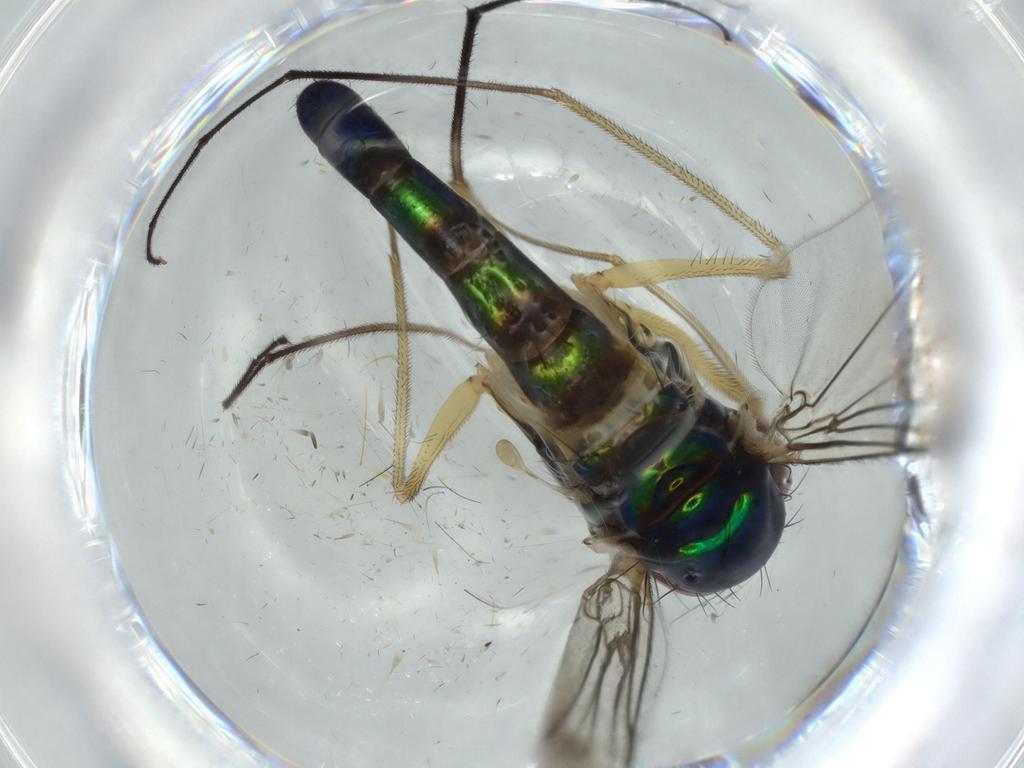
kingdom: Animalia
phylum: Arthropoda
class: Insecta
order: Diptera
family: Dolichopodidae
